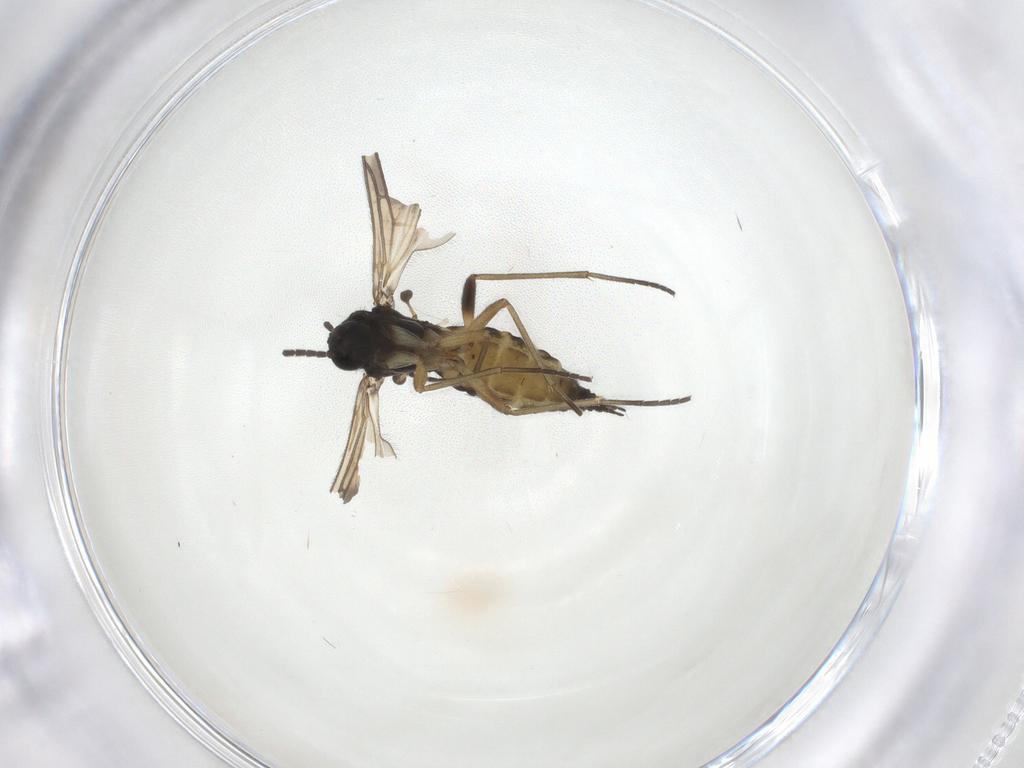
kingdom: Animalia
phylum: Arthropoda
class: Insecta
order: Diptera
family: Sciaridae
